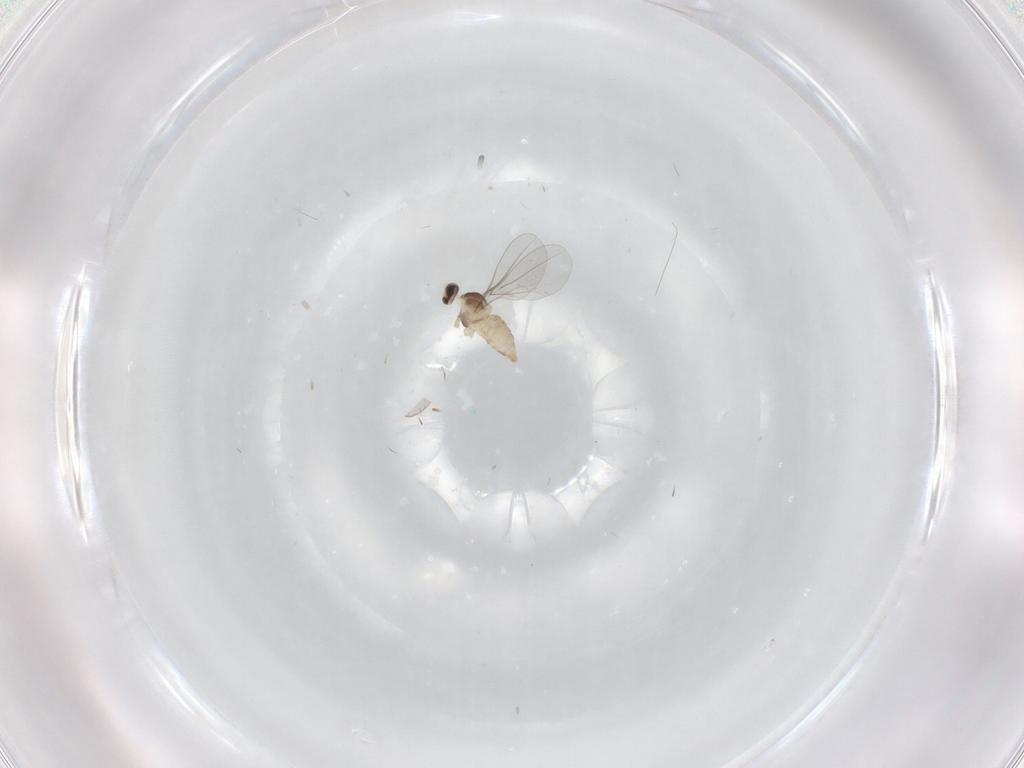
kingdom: Animalia
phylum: Arthropoda
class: Insecta
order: Diptera
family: Cecidomyiidae
